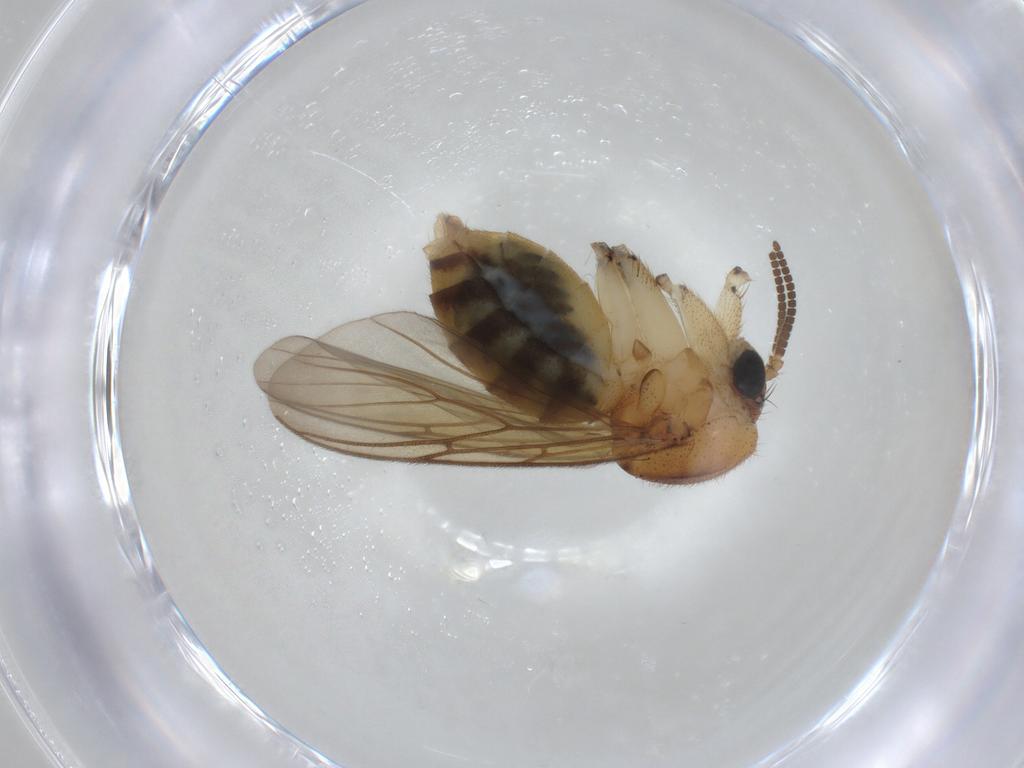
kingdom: Animalia
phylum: Arthropoda
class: Insecta
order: Diptera
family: Mycetophilidae
